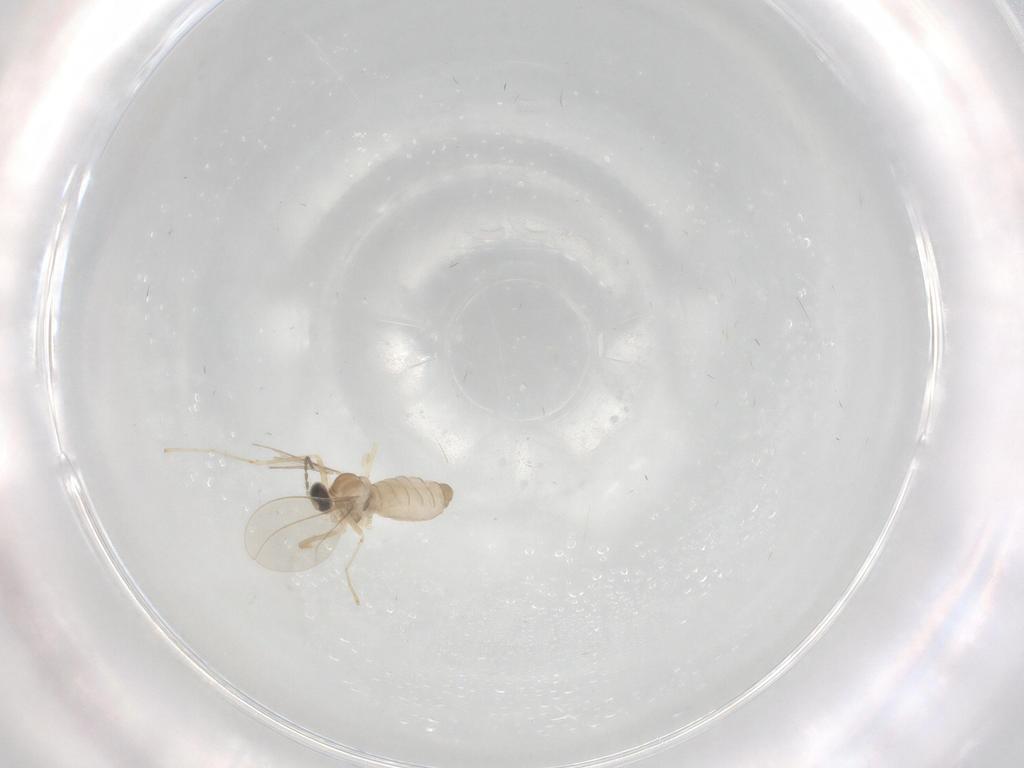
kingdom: Animalia
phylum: Arthropoda
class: Insecta
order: Diptera
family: Cecidomyiidae
